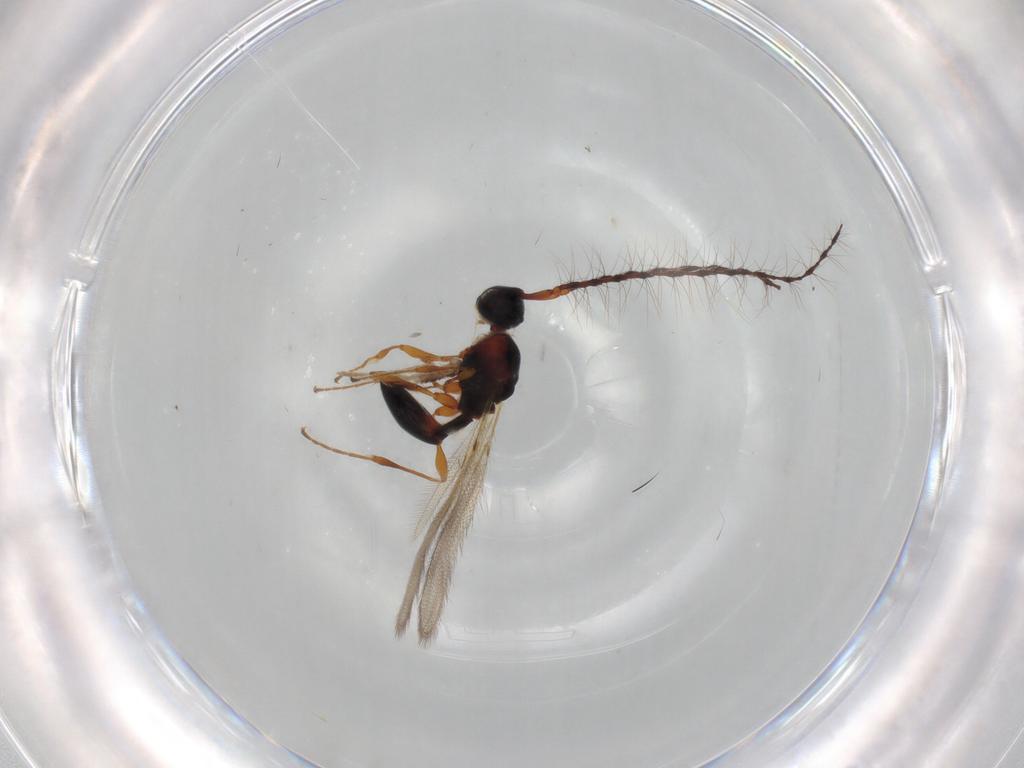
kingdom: Animalia
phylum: Arthropoda
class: Insecta
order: Hymenoptera
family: Diapriidae
